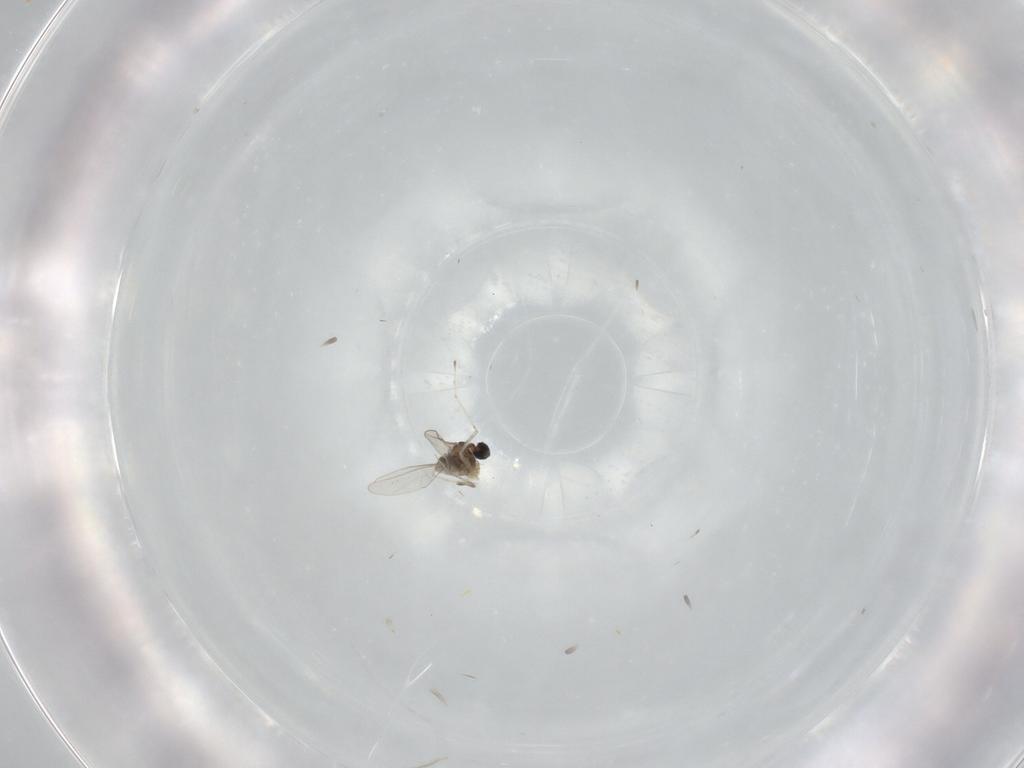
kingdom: Animalia
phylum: Arthropoda
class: Insecta
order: Diptera
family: Cecidomyiidae
